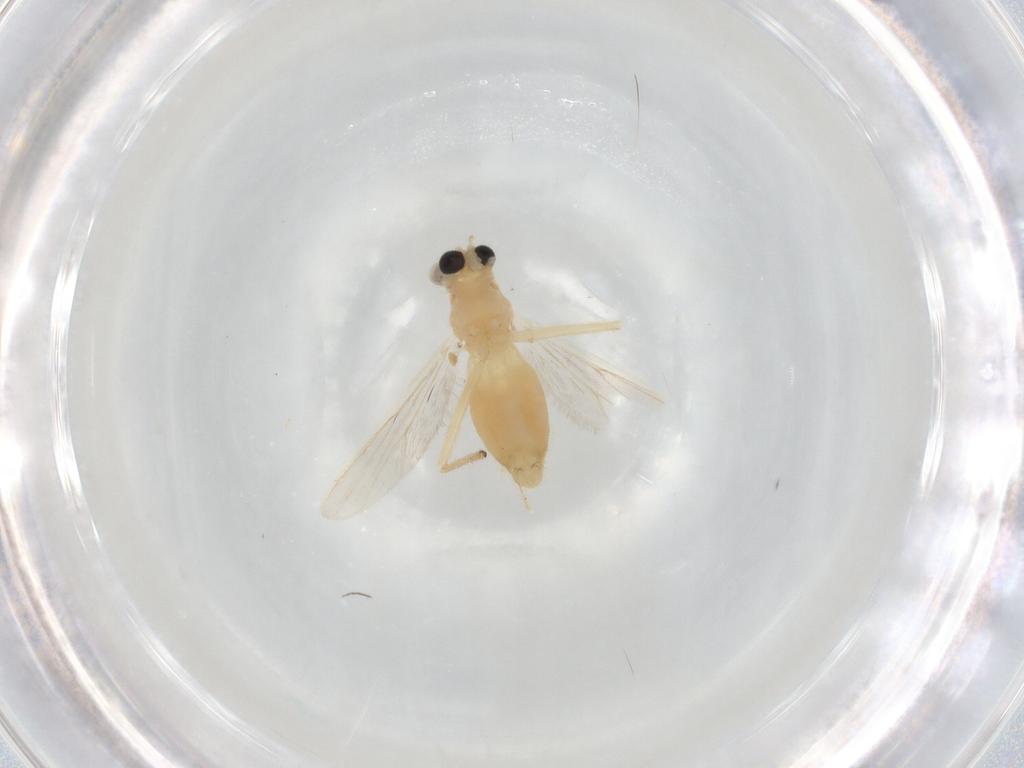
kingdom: Animalia
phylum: Arthropoda
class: Insecta
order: Diptera
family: Chironomidae
